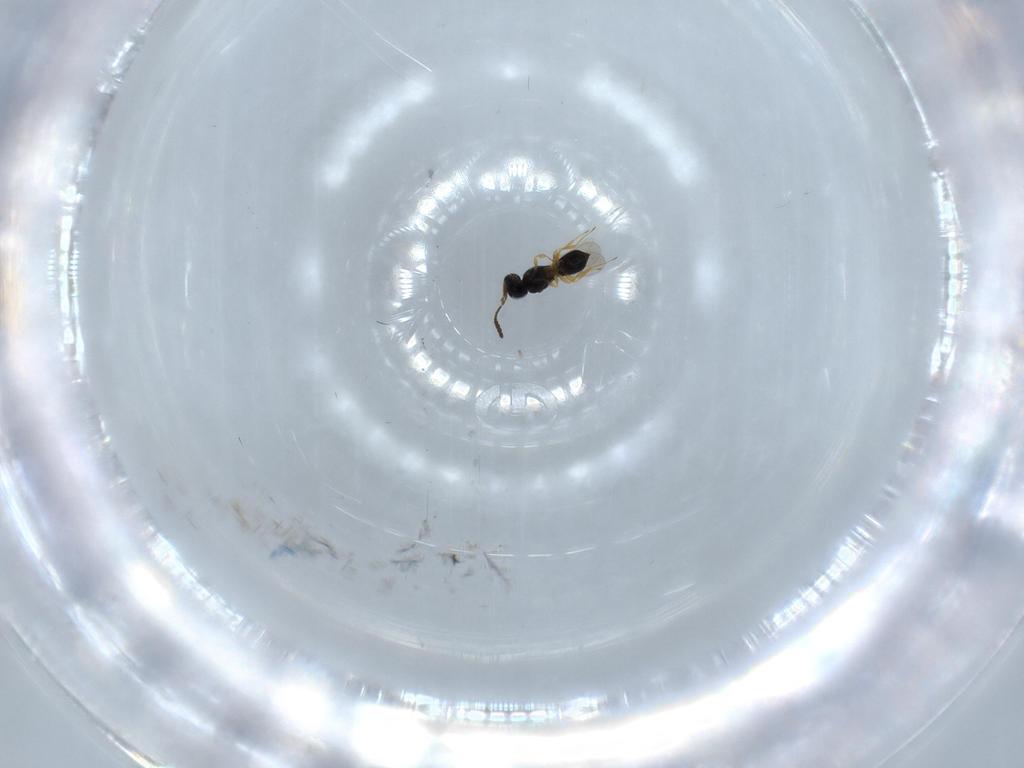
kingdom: Animalia
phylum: Arthropoda
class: Insecta
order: Hymenoptera
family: Scelionidae
